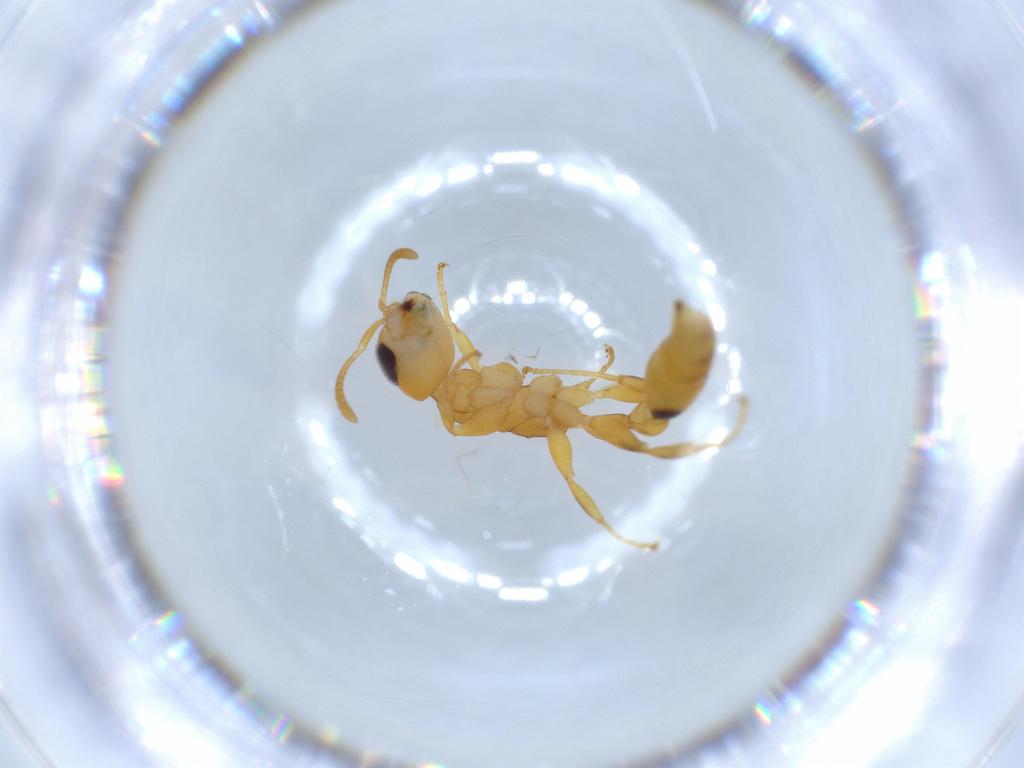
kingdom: Animalia
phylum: Arthropoda
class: Insecta
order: Hymenoptera
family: Formicidae
